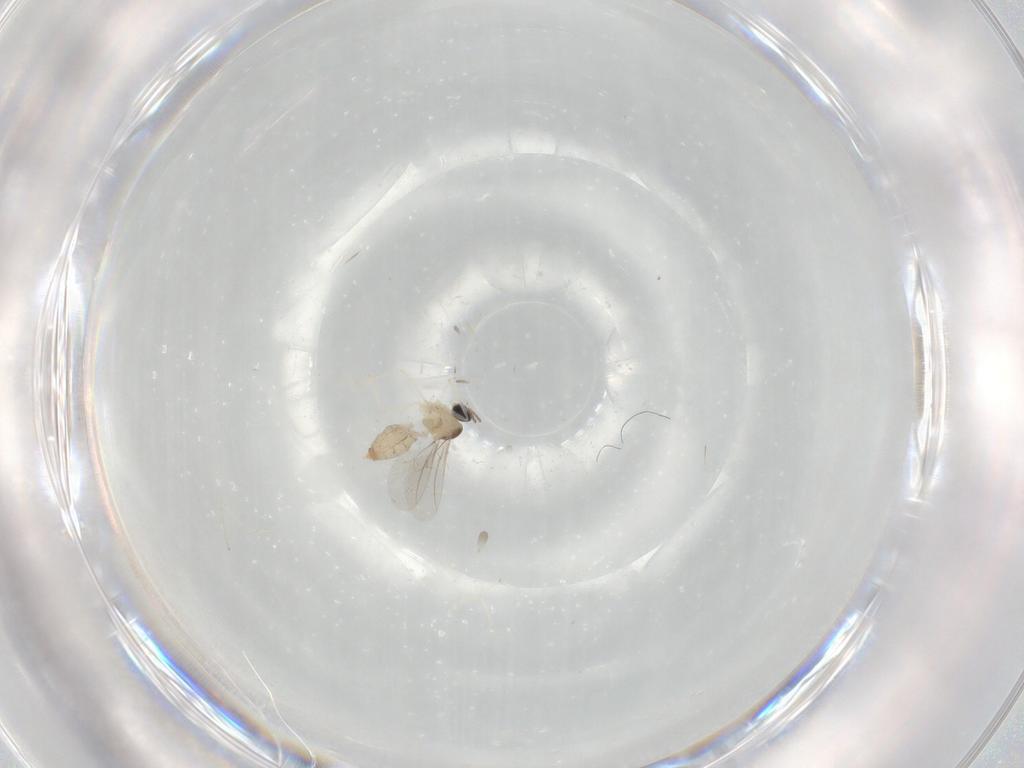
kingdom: Animalia
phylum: Arthropoda
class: Insecta
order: Diptera
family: Cecidomyiidae
